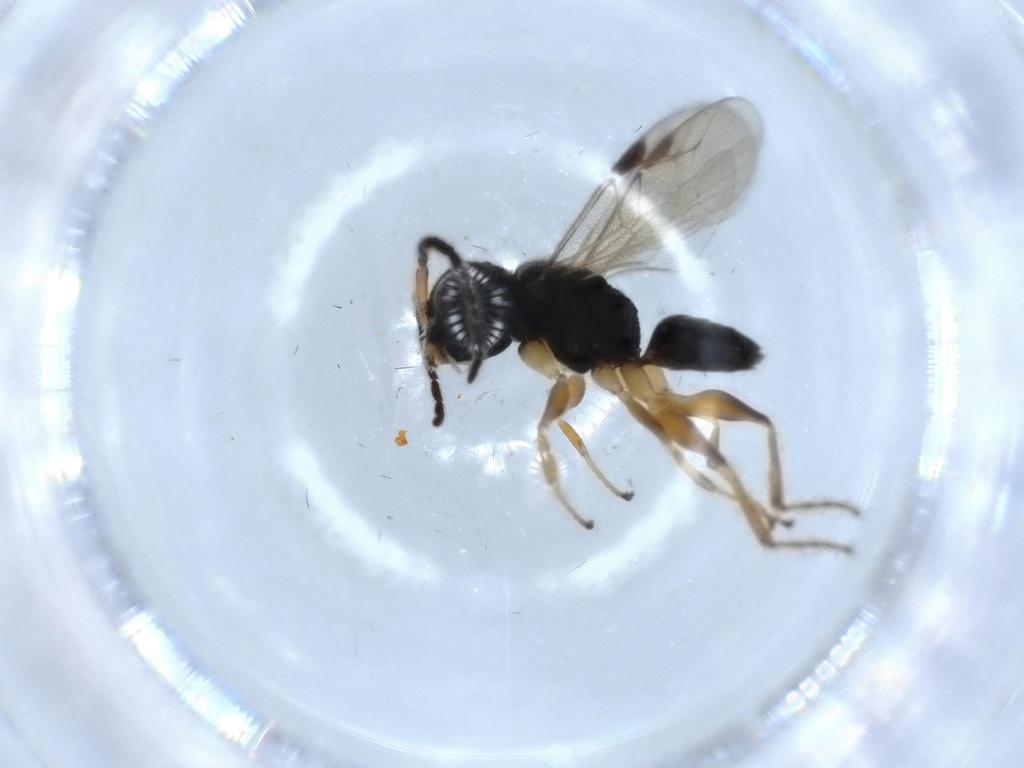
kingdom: Animalia
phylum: Arthropoda
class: Insecta
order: Hymenoptera
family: Dryinidae
